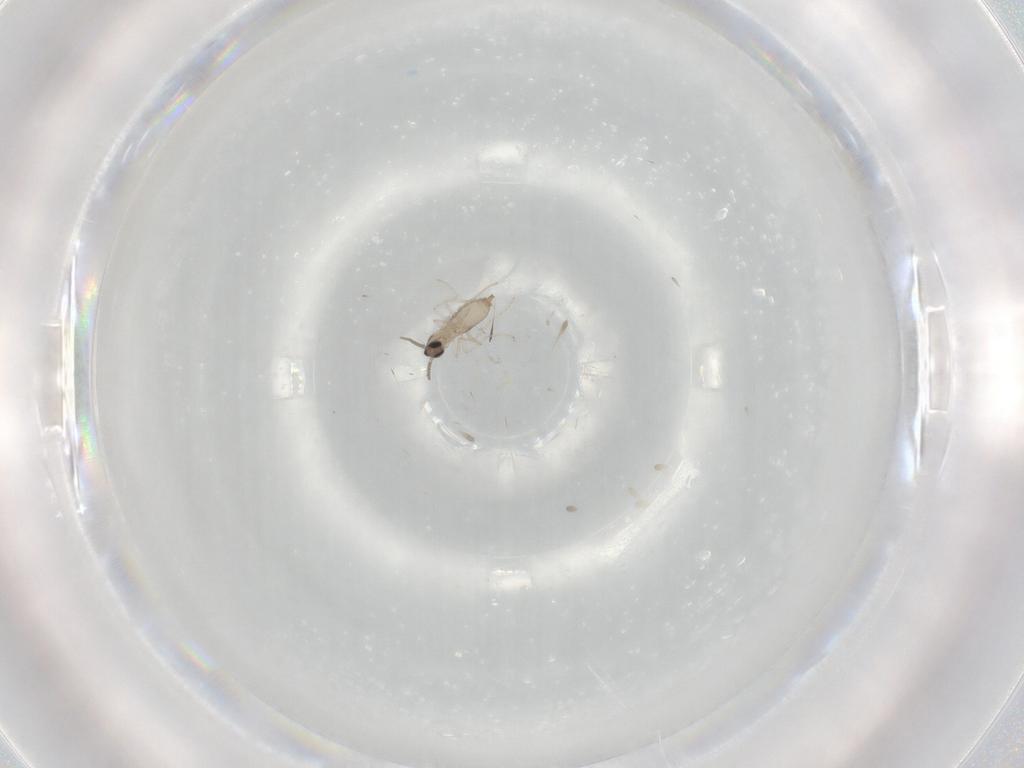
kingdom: Animalia
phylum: Arthropoda
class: Insecta
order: Diptera
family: Cecidomyiidae
